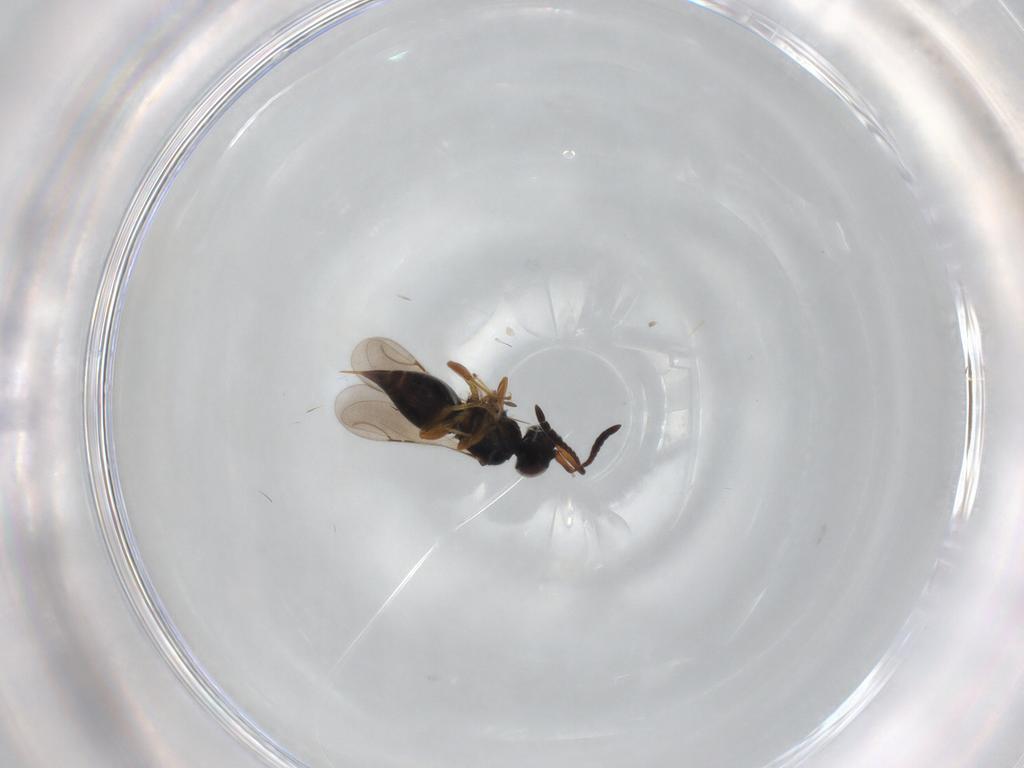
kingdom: Animalia
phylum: Arthropoda
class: Insecta
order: Hymenoptera
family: Ceraphronidae
